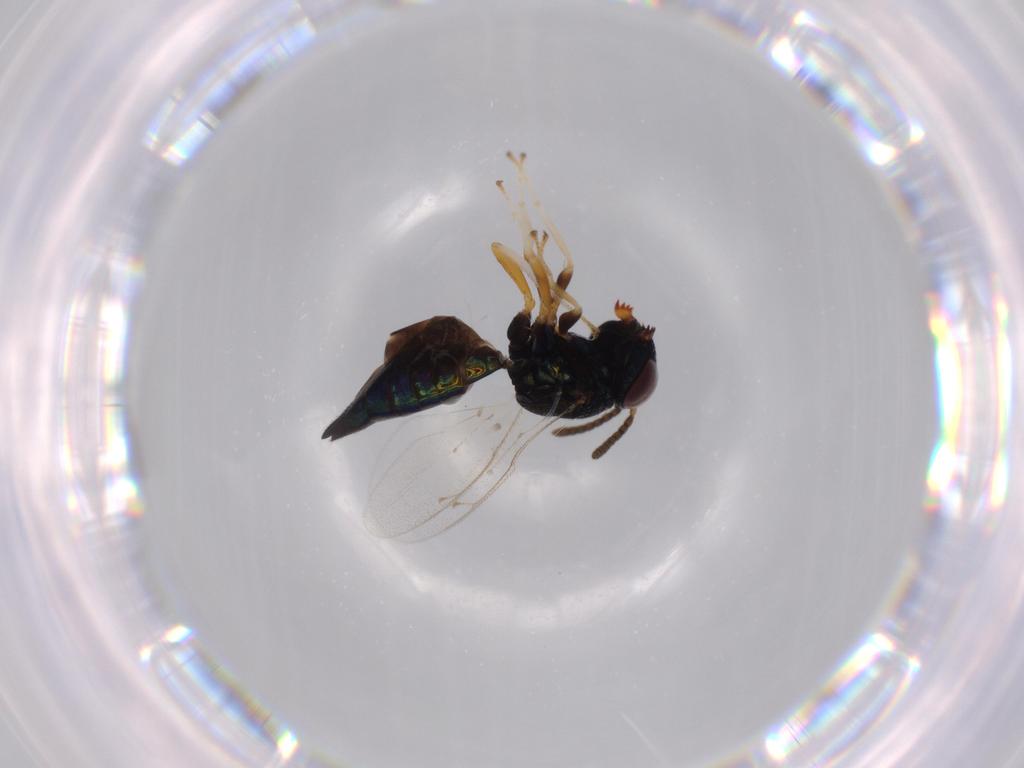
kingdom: Animalia
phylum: Arthropoda
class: Insecta
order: Hymenoptera
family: Pteromalidae
